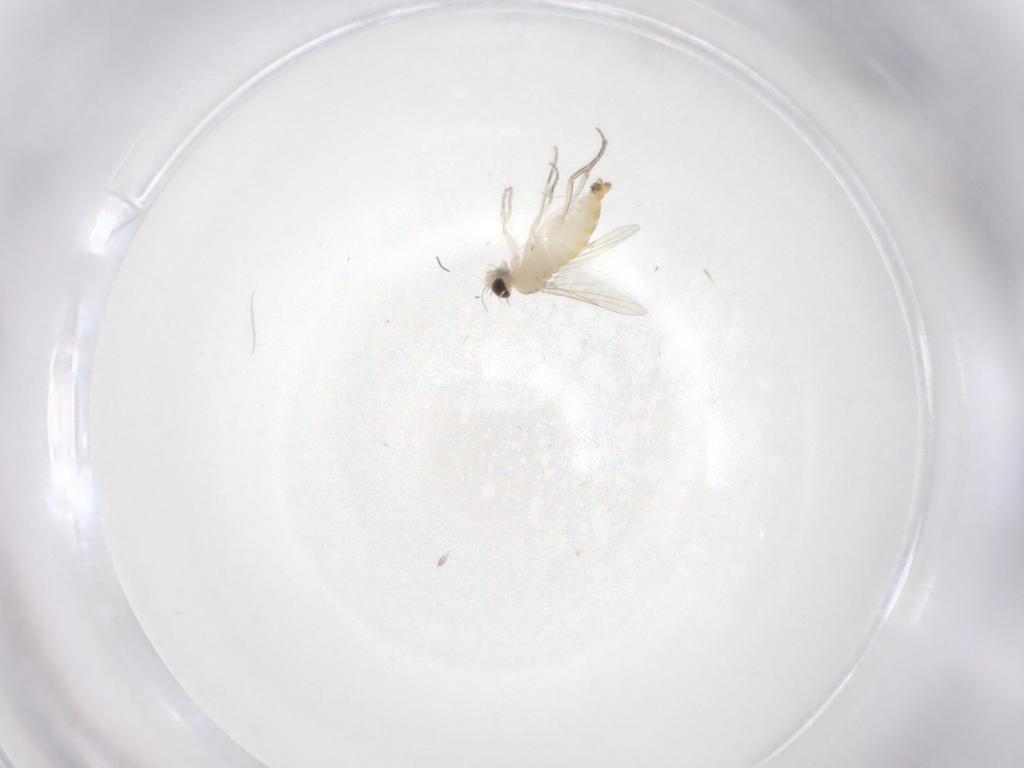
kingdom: Animalia
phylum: Arthropoda
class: Insecta
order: Diptera
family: Phoridae
